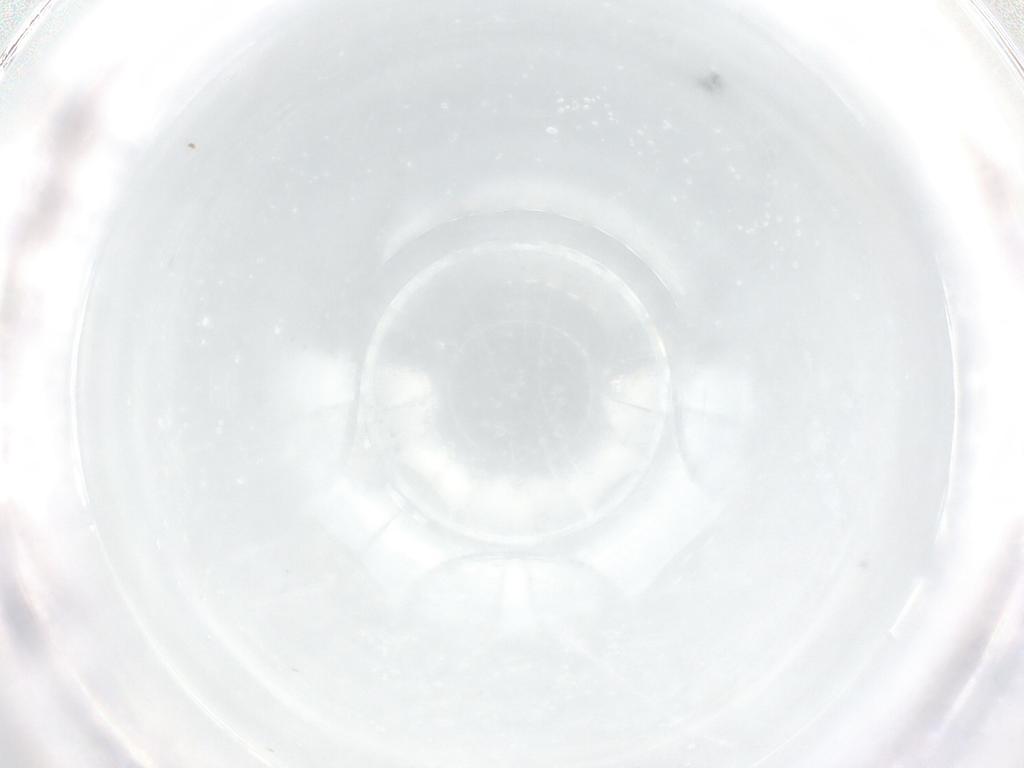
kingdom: Animalia
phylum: Arthropoda
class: Insecta
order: Diptera
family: Cecidomyiidae
